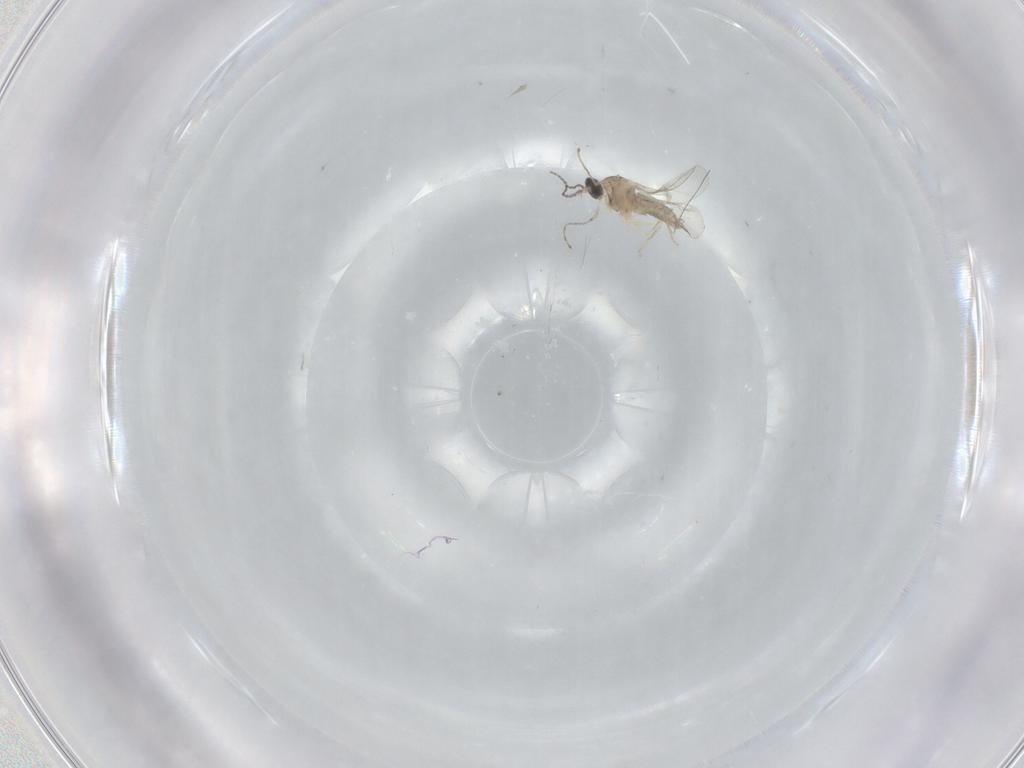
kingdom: Animalia
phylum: Arthropoda
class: Insecta
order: Diptera
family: Cecidomyiidae
